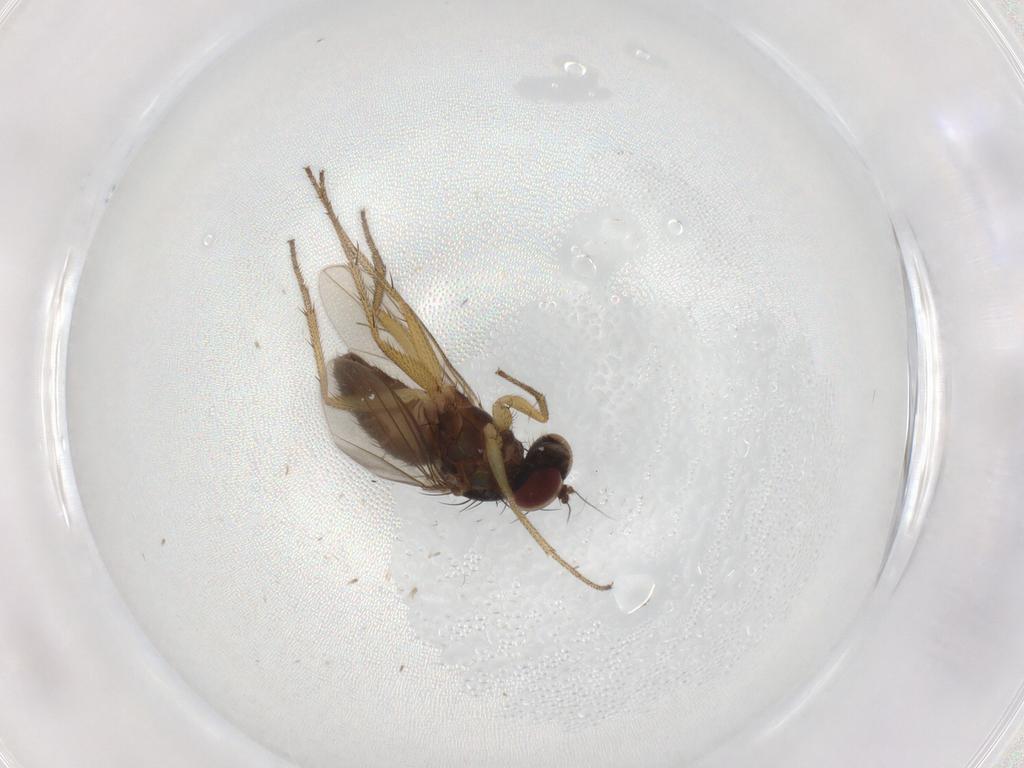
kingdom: Animalia
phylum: Arthropoda
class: Insecta
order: Diptera
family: Dolichopodidae
